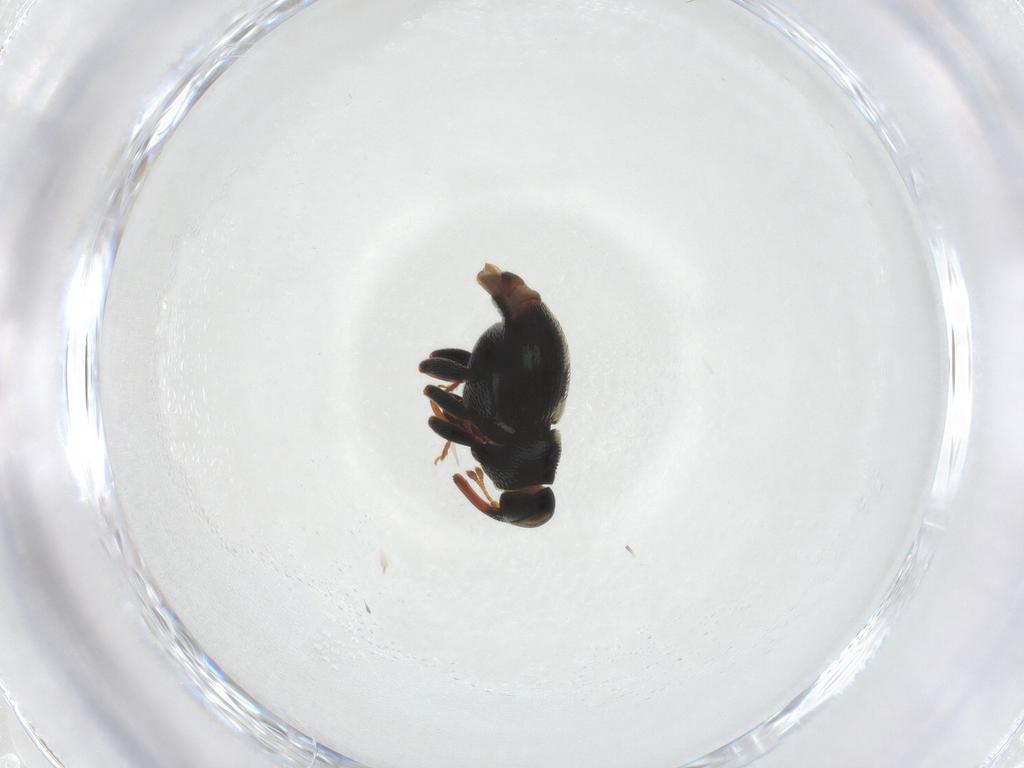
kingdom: Animalia
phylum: Arthropoda
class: Insecta
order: Coleoptera
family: Curculionidae
